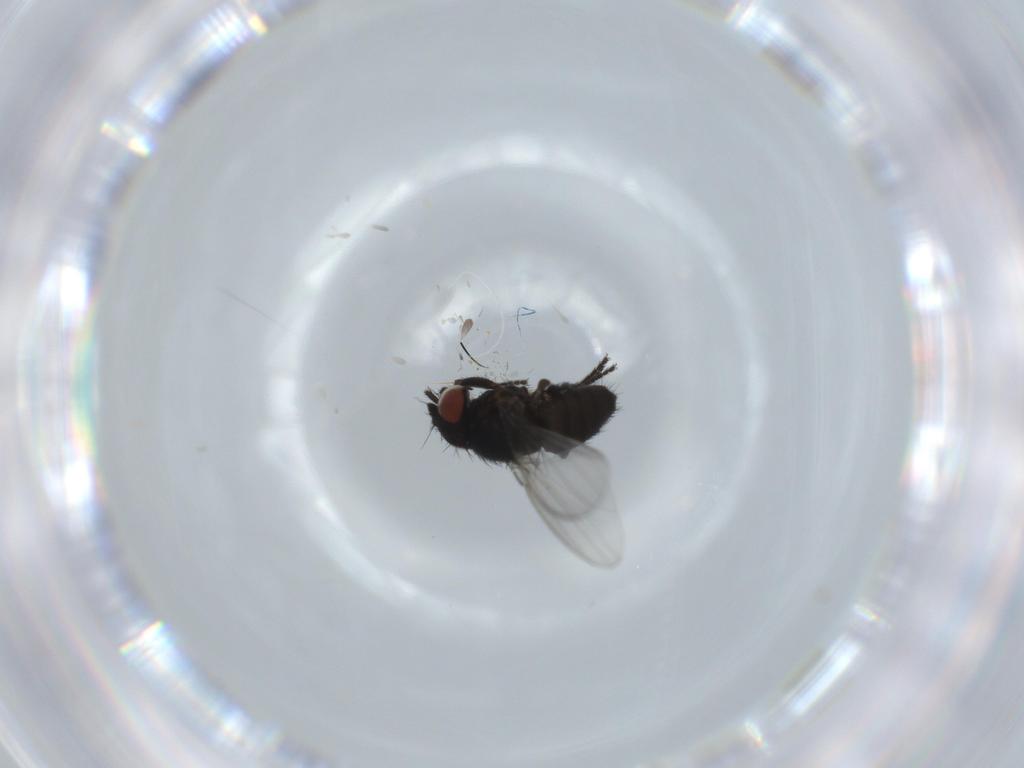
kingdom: Animalia
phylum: Arthropoda
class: Insecta
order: Diptera
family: Milichiidae
